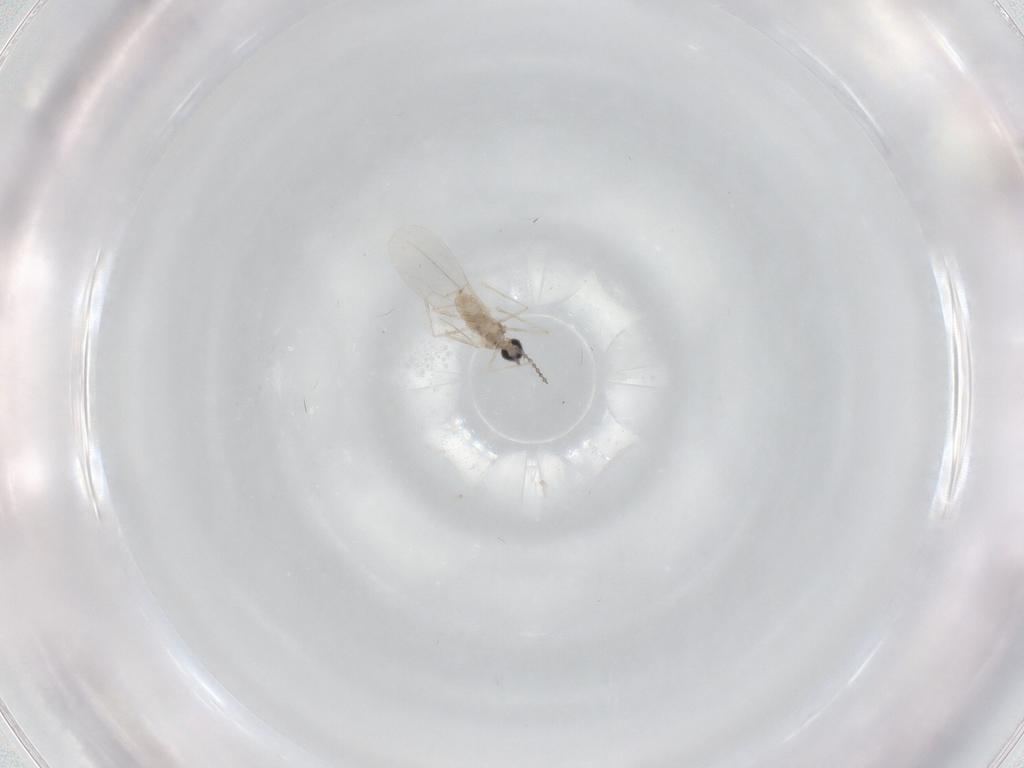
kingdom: Animalia
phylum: Arthropoda
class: Insecta
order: Diptera
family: Cecidomyiidae
